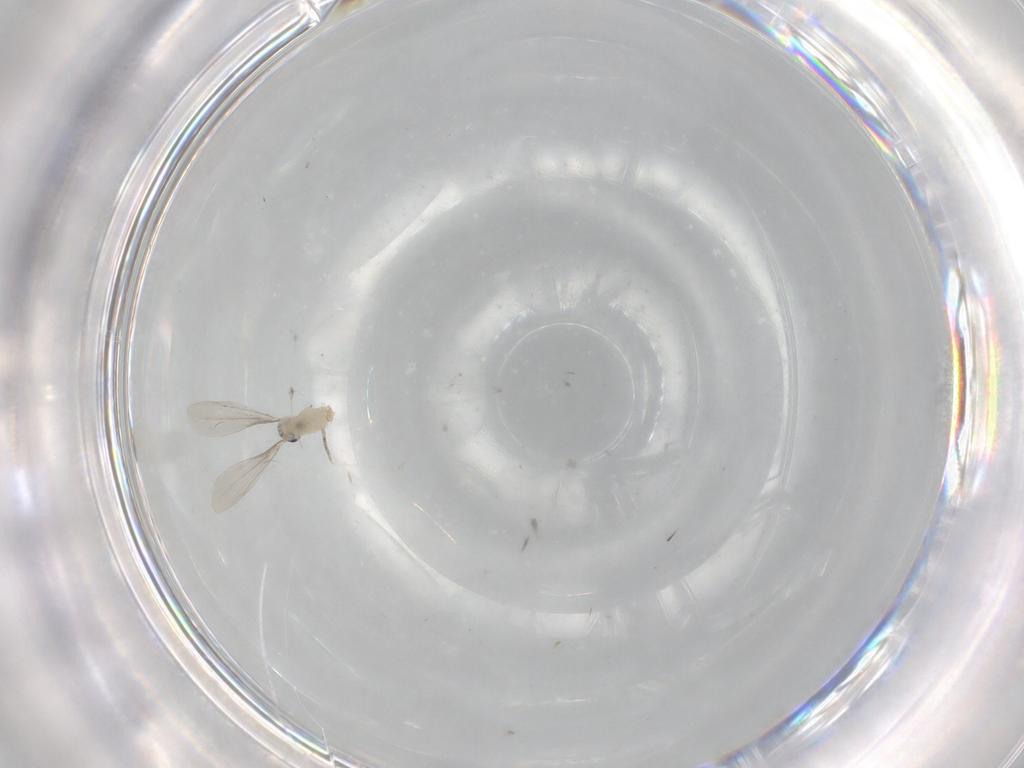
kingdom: Animalia
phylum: Arthropoda
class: Insecta
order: Diptera
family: Cecidomyiidae
